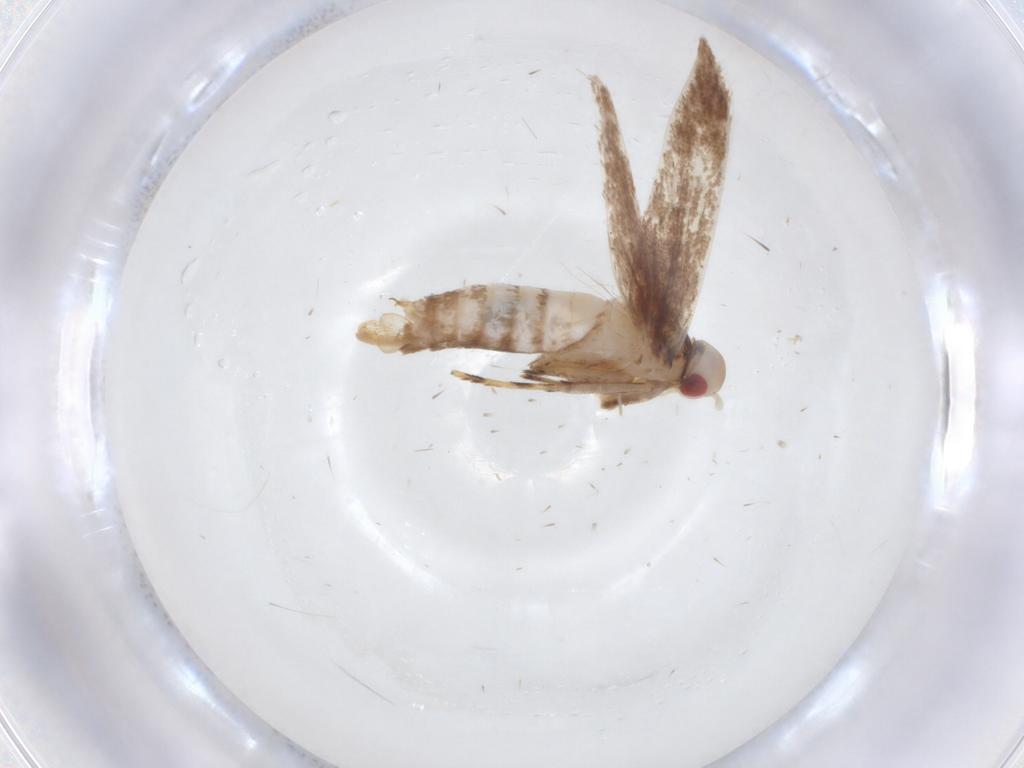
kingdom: Animalia
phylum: Arthropoda
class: Insecta
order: Lepidoptera
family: Cosmopterigidae
